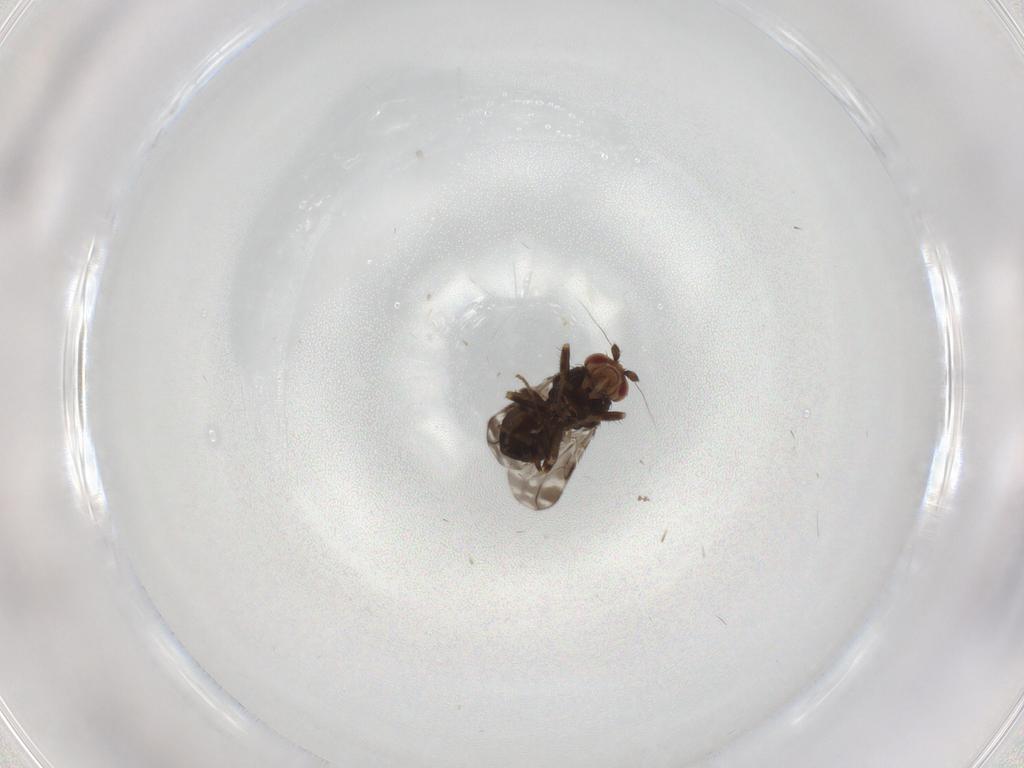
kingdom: Animalia
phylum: Arthropoda
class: Insecta
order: Diptera
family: Sphaeroceridae
